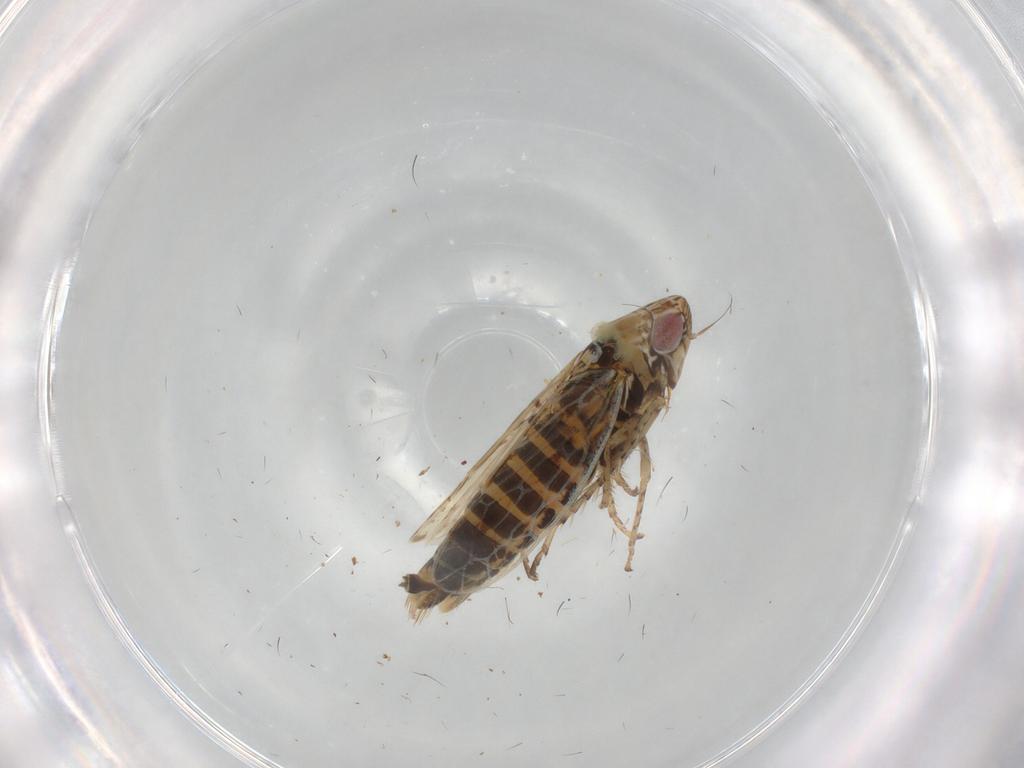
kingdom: Animalia
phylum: Arthropoda
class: Insecta
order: Hemiptera
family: Cicadellidae
